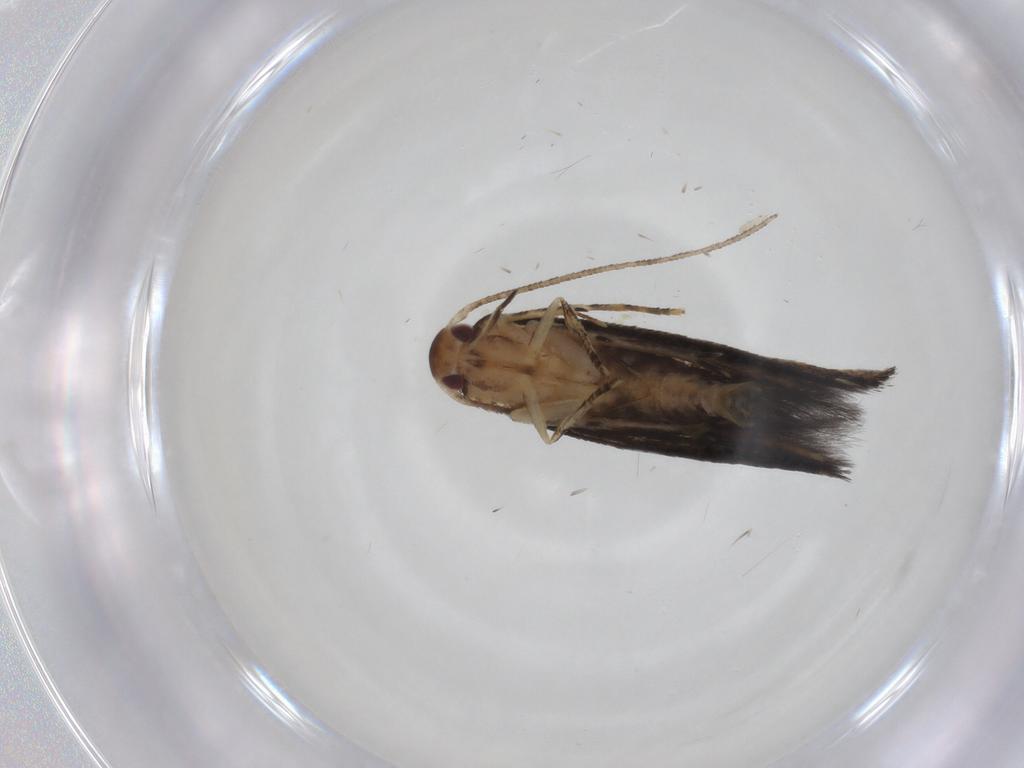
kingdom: Animalia
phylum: Arthropoda
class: Insecta
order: Lepidoptera
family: Momphidae
